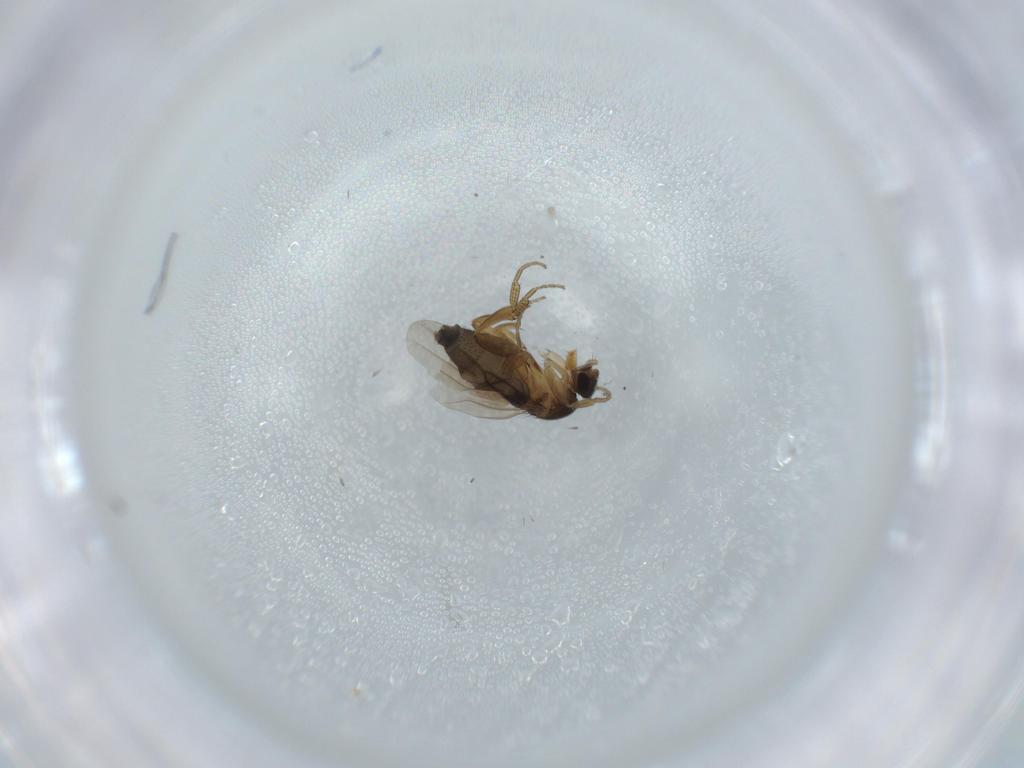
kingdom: Animalia
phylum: Arthropoda
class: Insecta
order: Diptera
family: Phoridae
